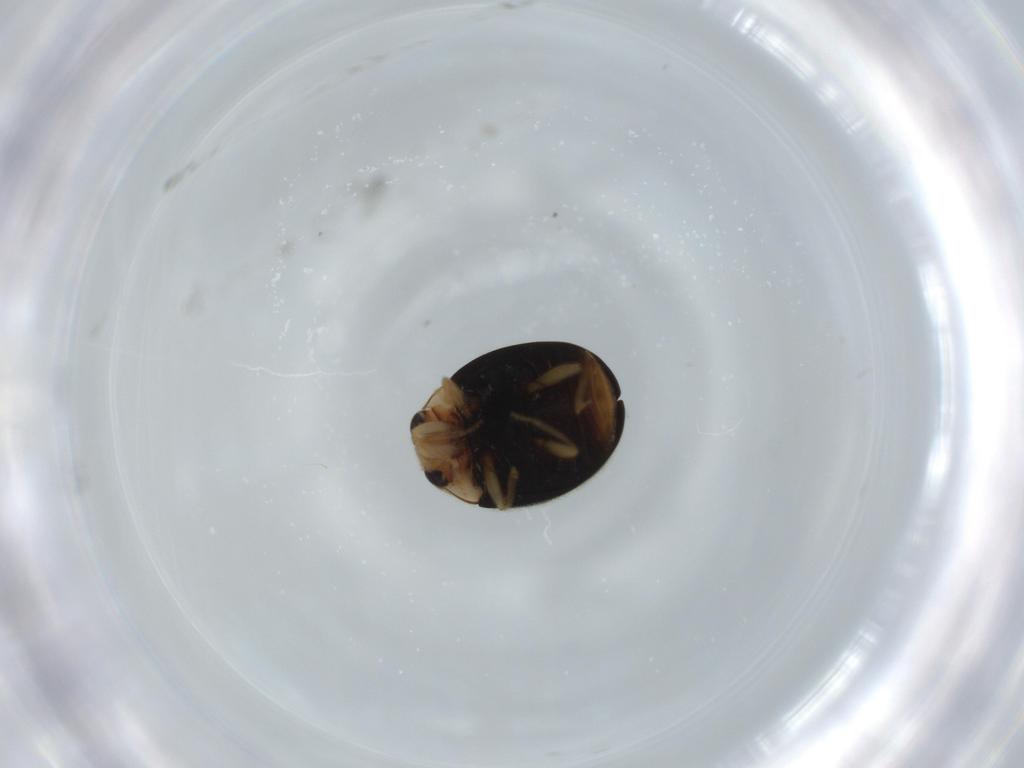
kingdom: Animalia
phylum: Arthropoda
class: Insecta
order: Coleoptera
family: Coccinellidae
